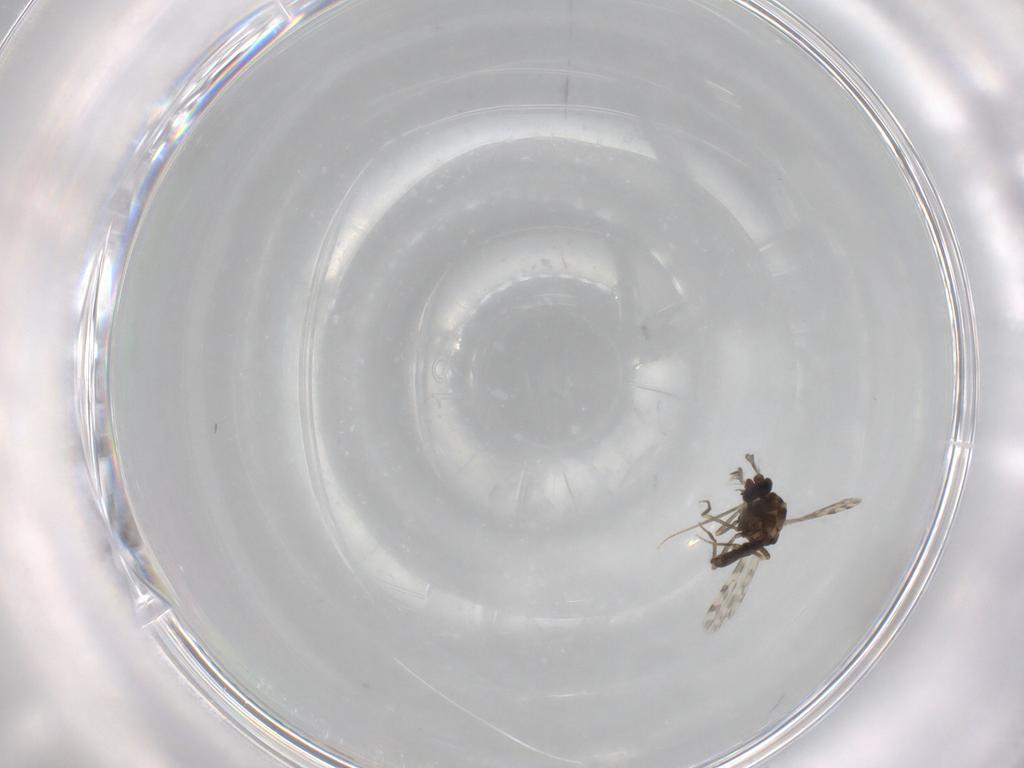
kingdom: Animalia
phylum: Arthropoda
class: Insecta
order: Diptera
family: Ceratopogonidae
